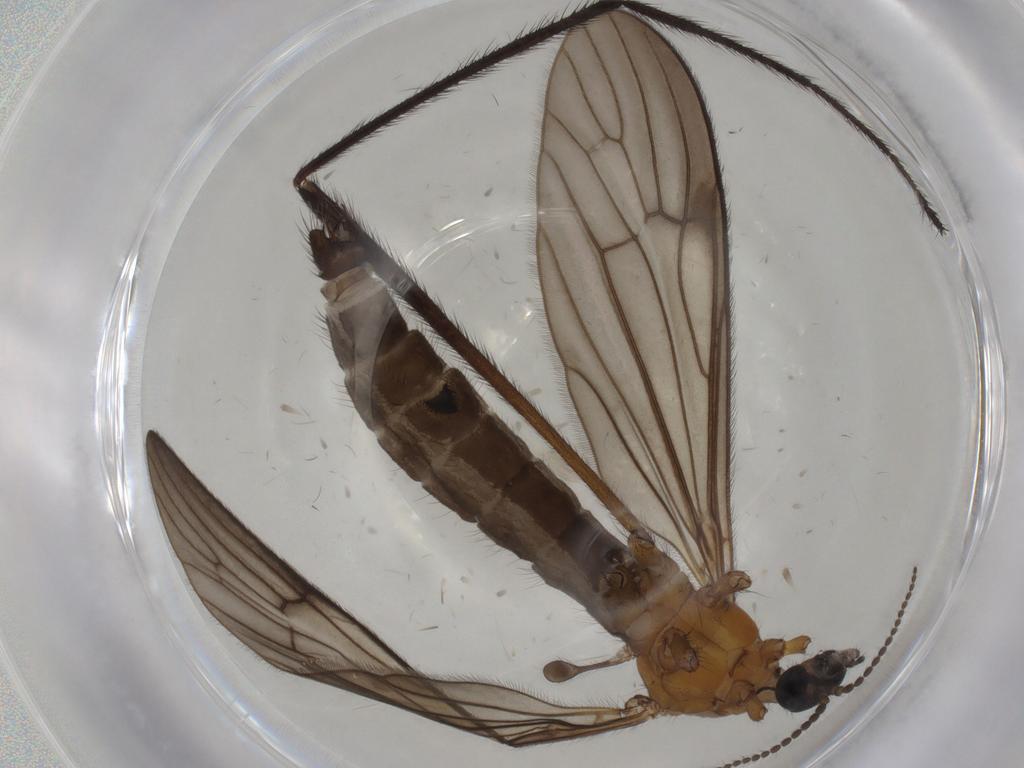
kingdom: Animalia
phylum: Arthropoda
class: Insecta
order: Diptera
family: Limoniidae
